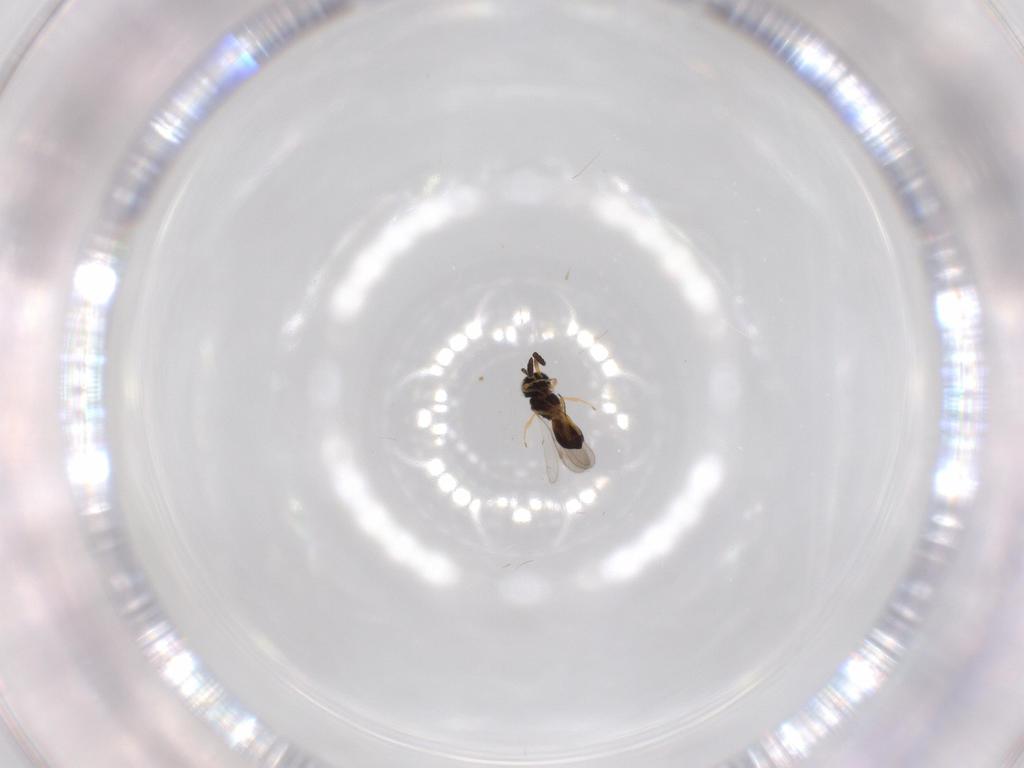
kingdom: Animalia
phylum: Arthropoda
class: Insecta
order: Hymenoptera
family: Scelionidae
